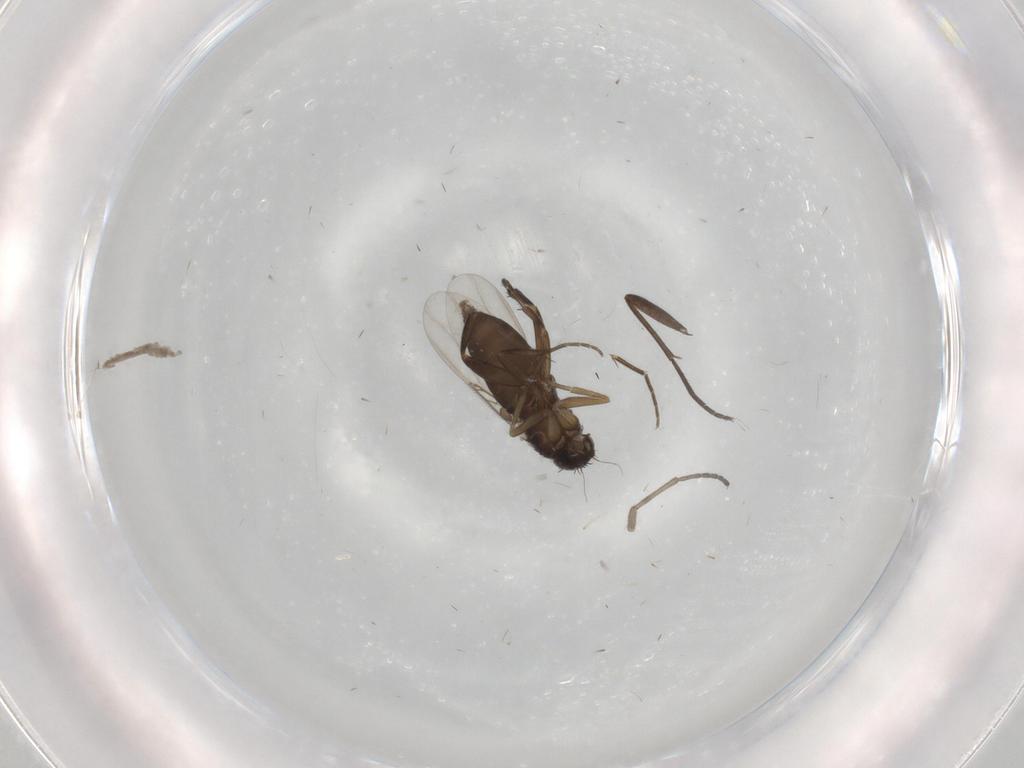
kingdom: Animalia
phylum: Arthropoda
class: Insecta
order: Diptera
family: Phoridae
